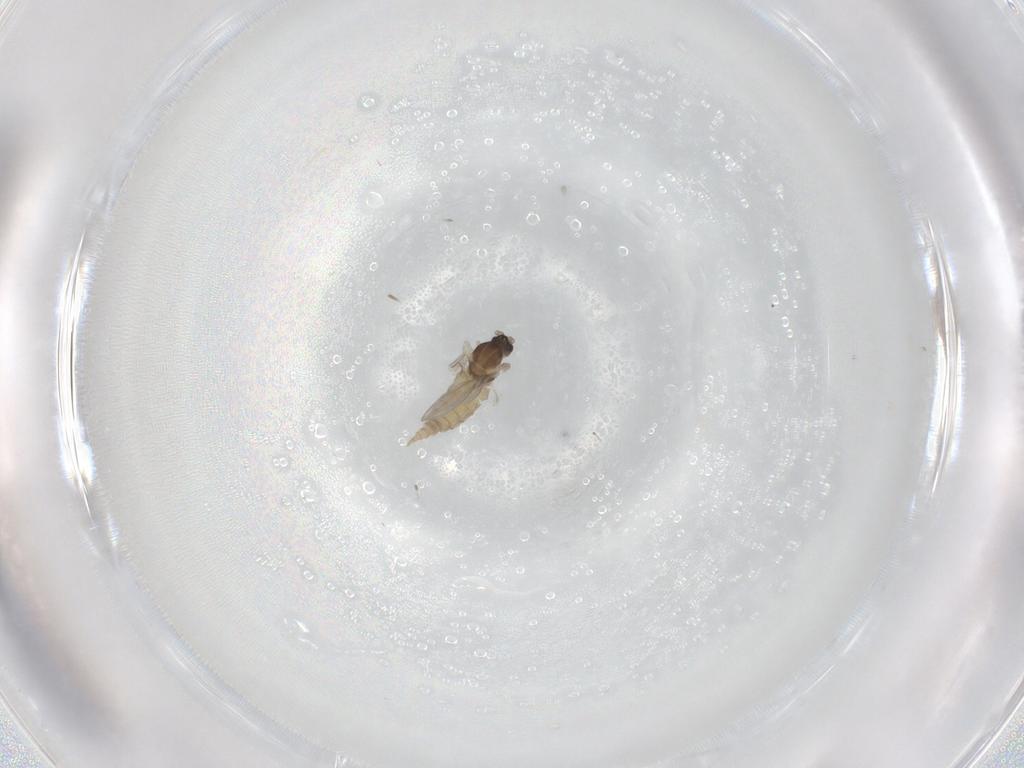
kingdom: Animalia
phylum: Arthropoda
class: Insecta
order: Diptera
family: Cecidomyiidae
